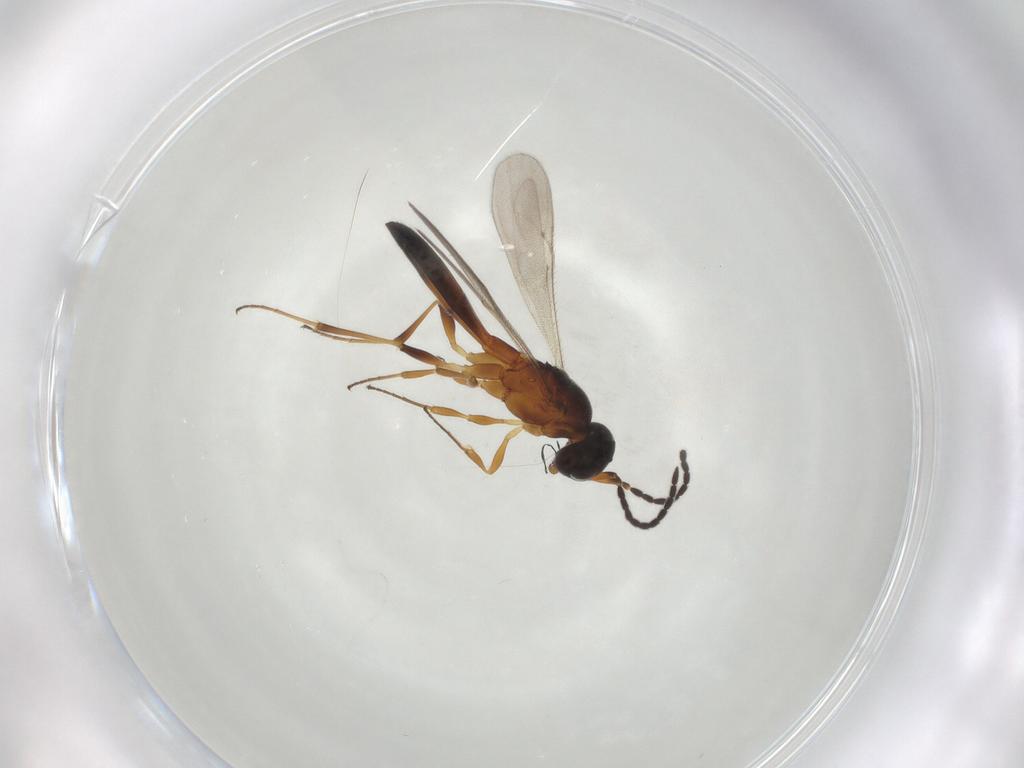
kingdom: Animalia
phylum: Arthropoda
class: Insecta
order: Hymenoptera
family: Scelionidae
